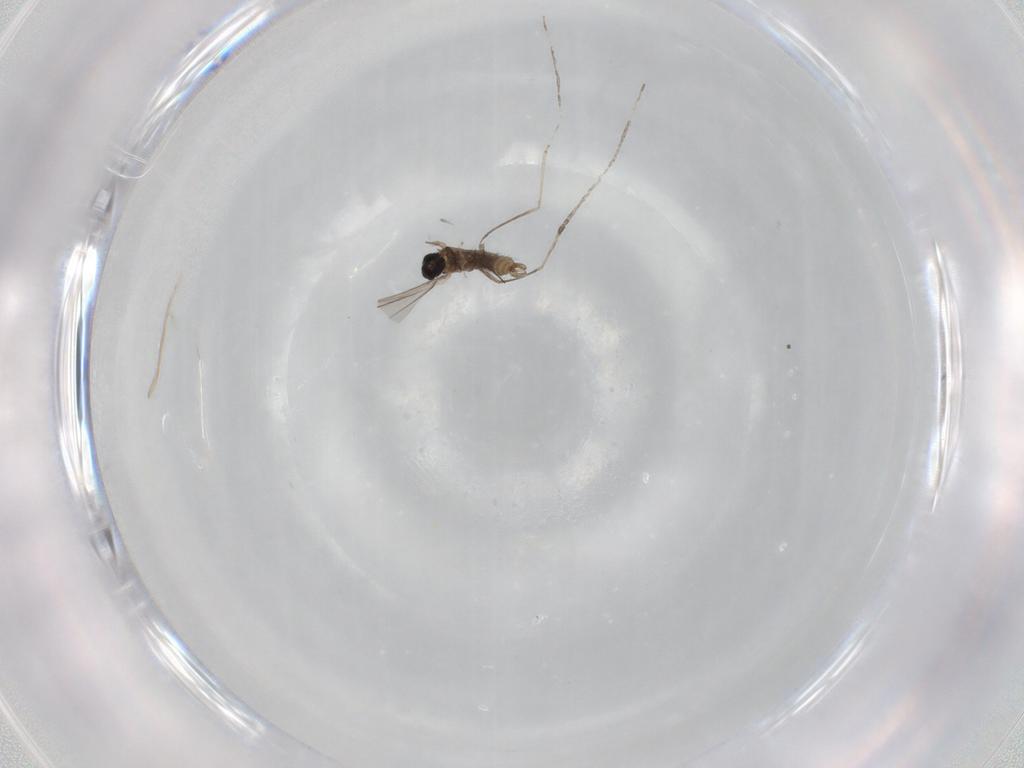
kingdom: Animalia
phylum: Arthropoda
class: Insecta
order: Diptera
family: Cecidomyiidae
